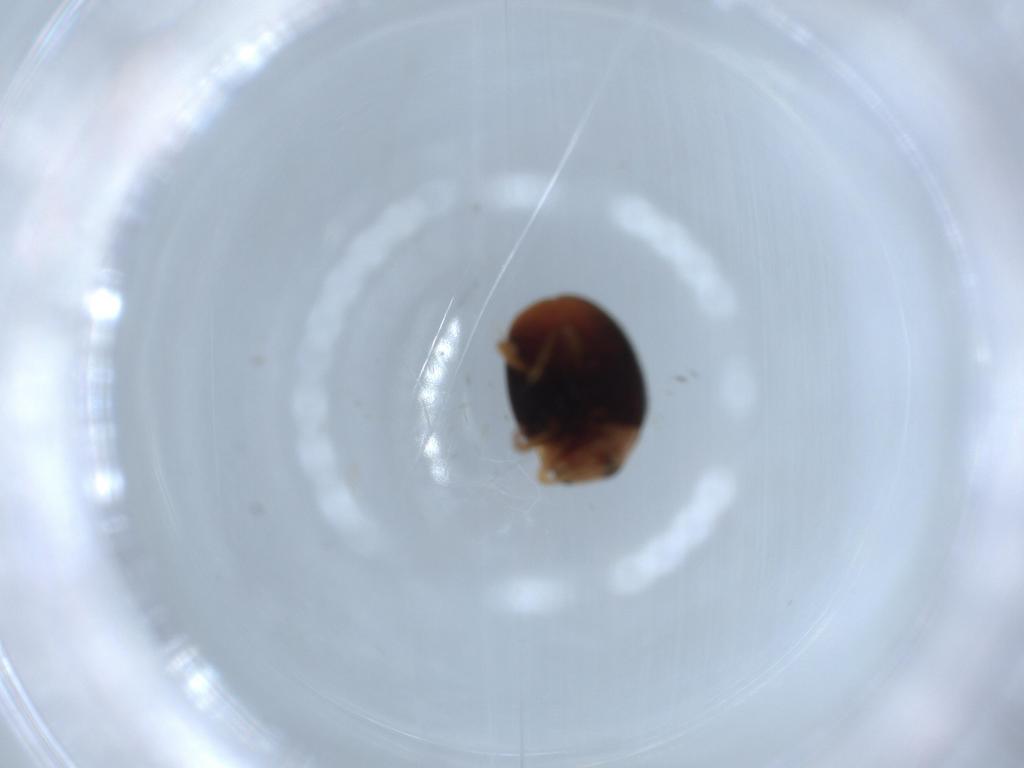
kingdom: Animalia
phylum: Arthropoda
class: Insecta
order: Coleoptera
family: Coccinellidae
